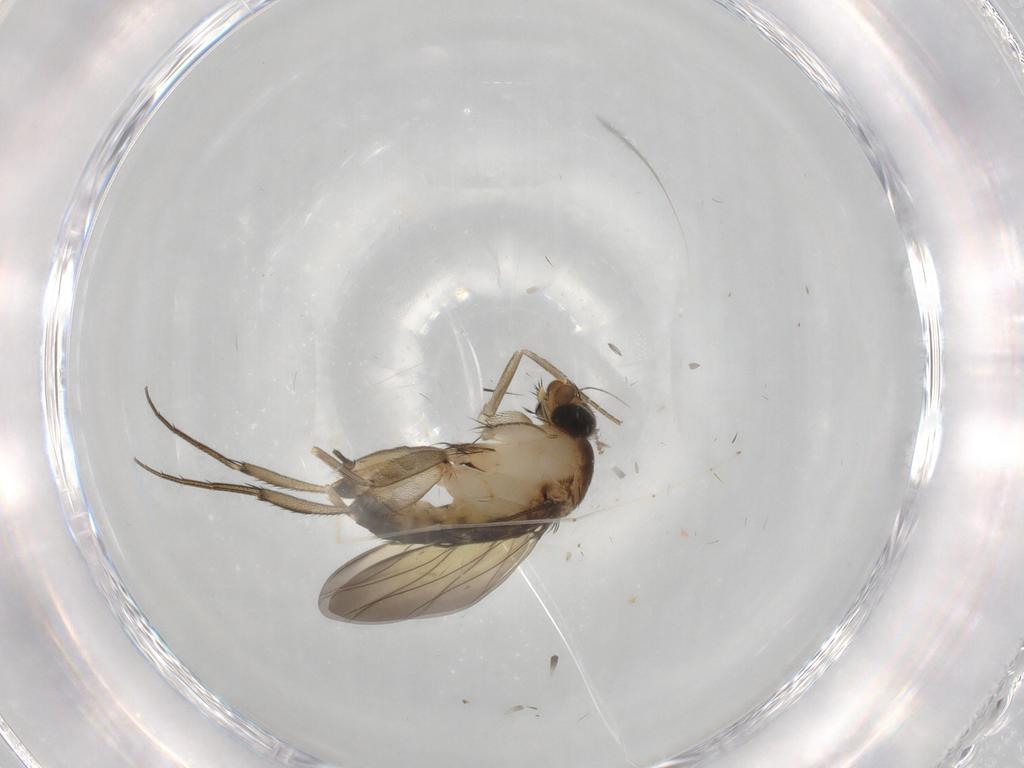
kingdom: Animalia
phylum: Arthropoda
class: Insecta
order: Diptera
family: Phoridae
